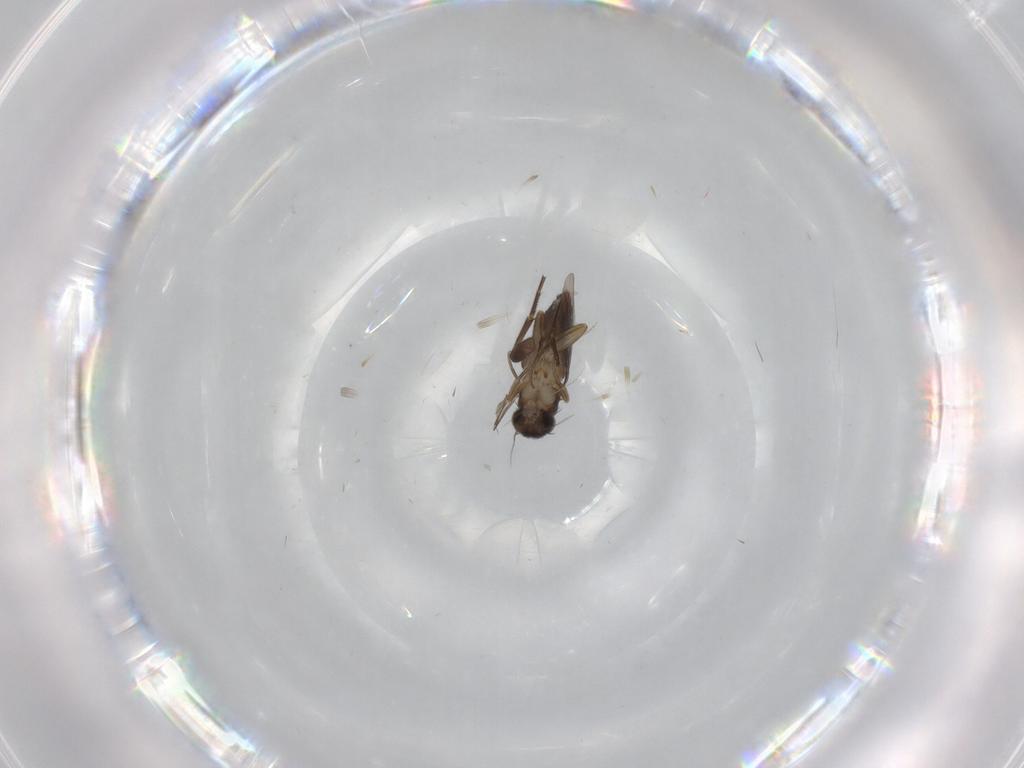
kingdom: Animalia
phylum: Arthropoda
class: Insecta
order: Diptera
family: Phoridae
